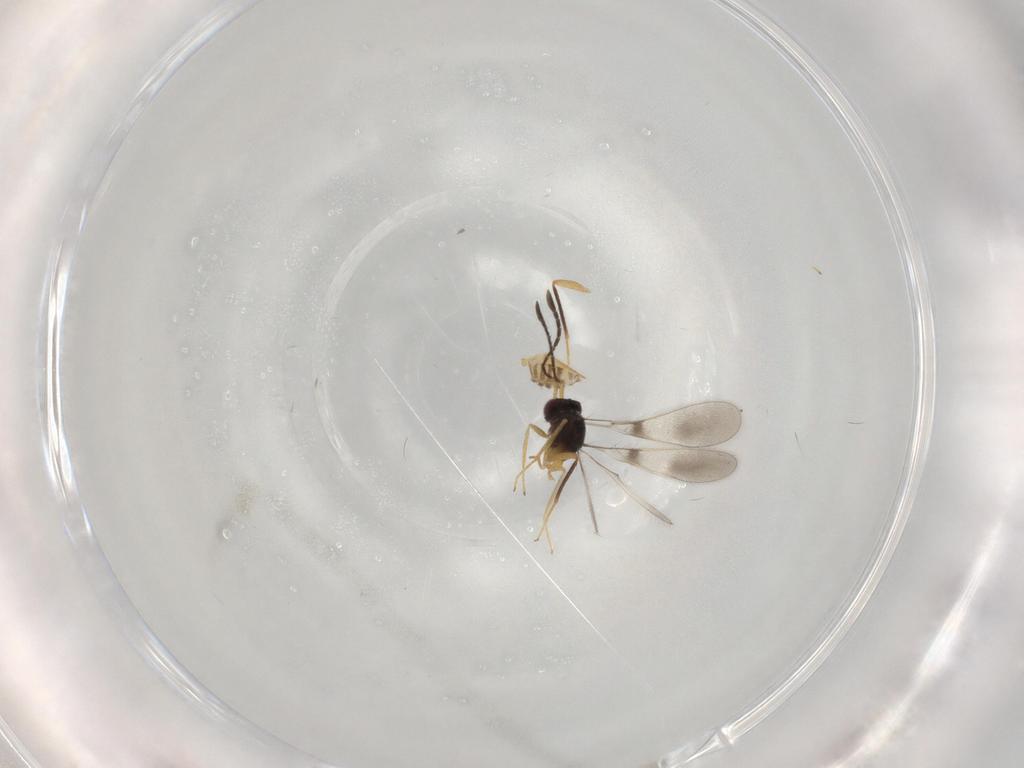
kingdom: Animalia
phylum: Arthropoda
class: Insecta
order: Hymenoptera
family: Mymaridae
